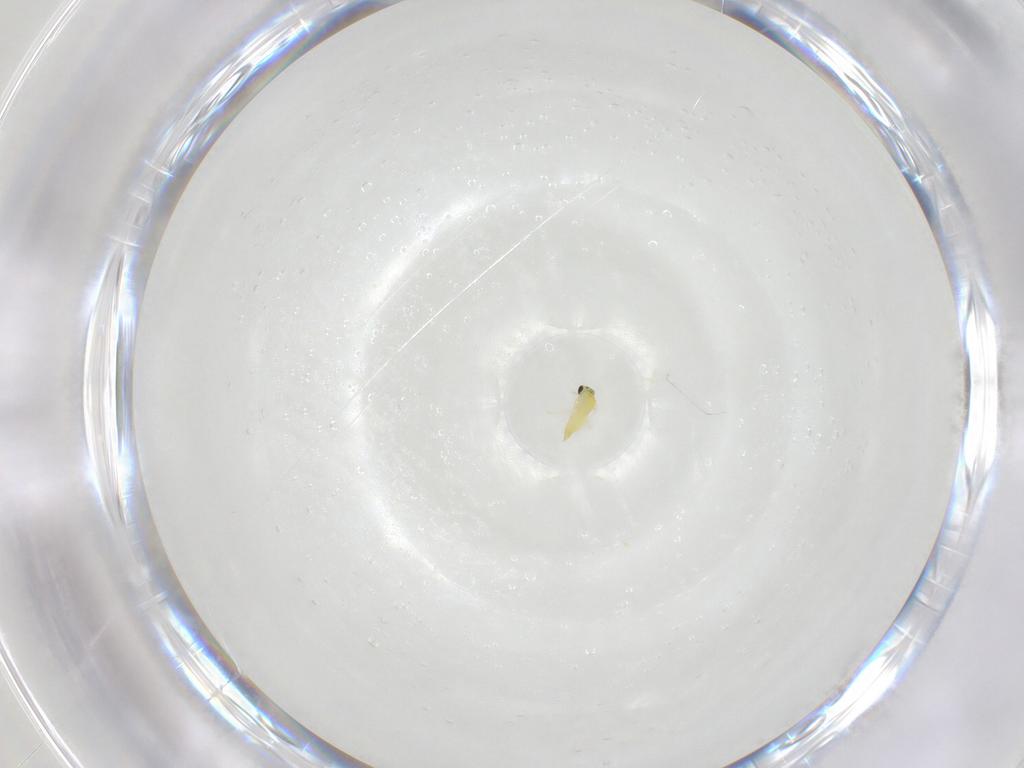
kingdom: Animalia
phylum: Arthropoda
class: Insecta
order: Hymenoptera
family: Trichogrammatidae
